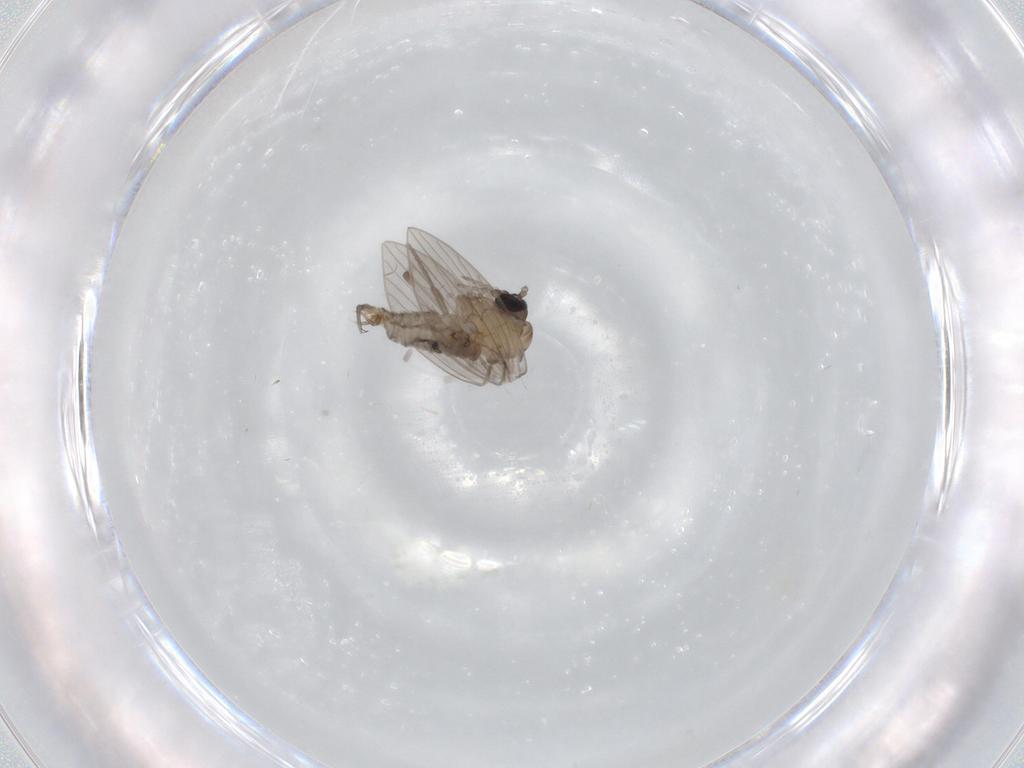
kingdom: Animalia
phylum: Arthropoda
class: Insecta
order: Diptera
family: Psychodidae
